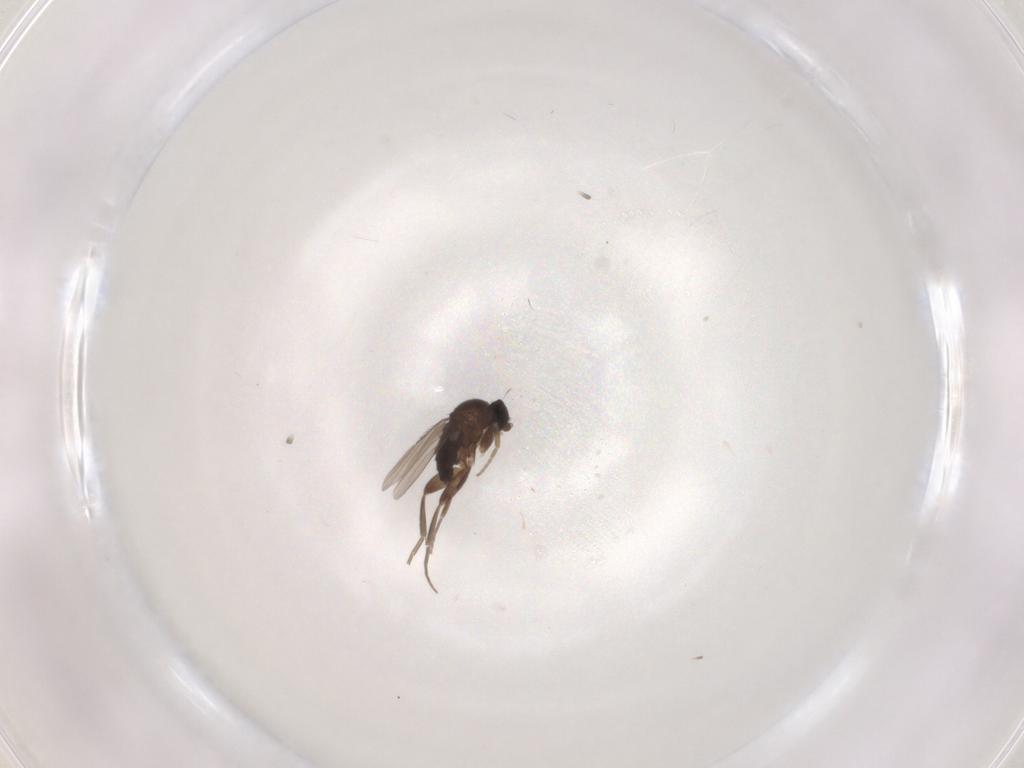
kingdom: Animalia
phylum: Arthropoda
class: Insecta
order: Diptera
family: Phoridae
